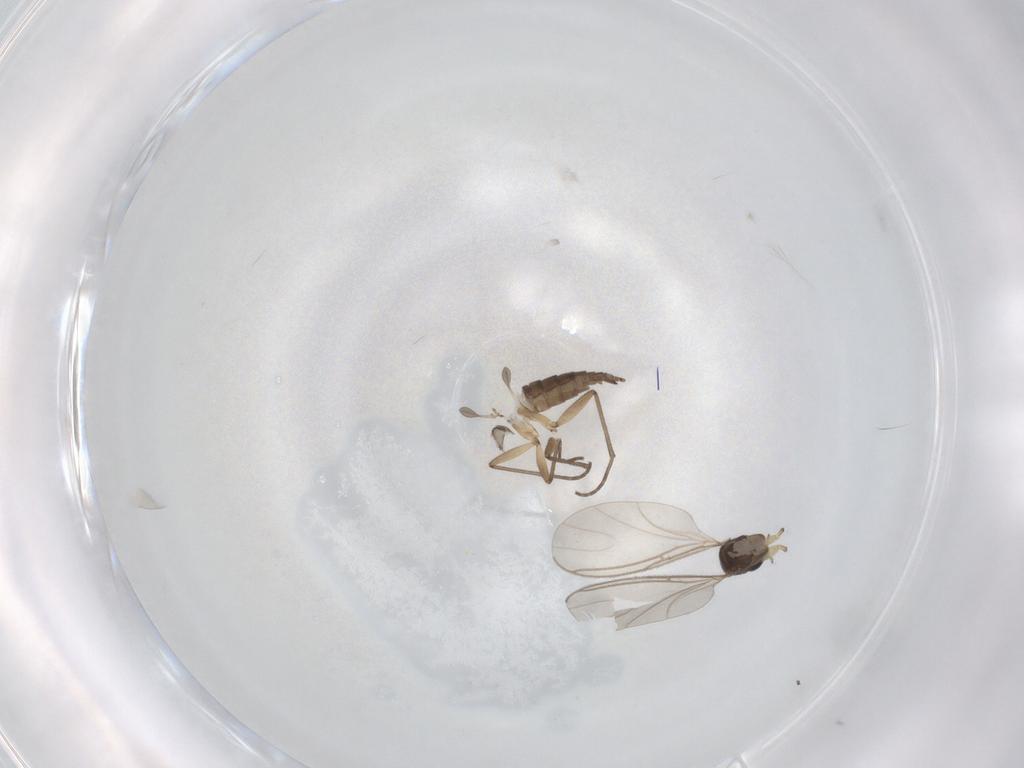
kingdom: Animalia
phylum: Arthropoda
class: Insecta
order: Diptera
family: Sciaridae
